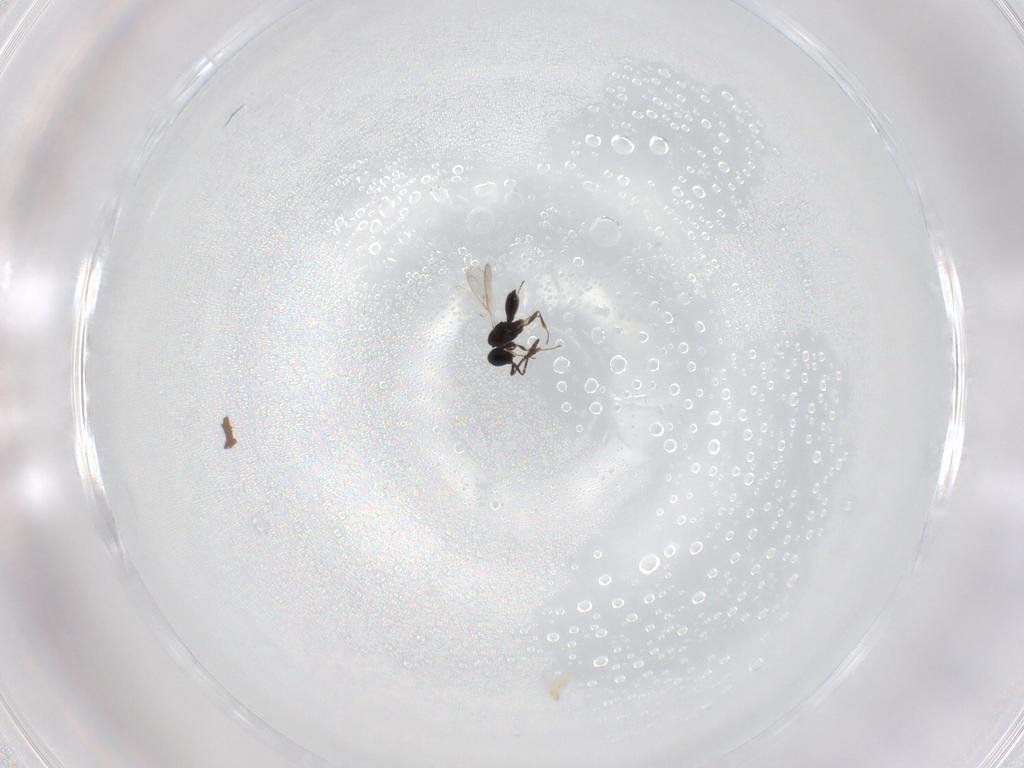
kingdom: Animalia
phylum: Arthropoda
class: Insecta
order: Hymenoptera
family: Scelionidae
